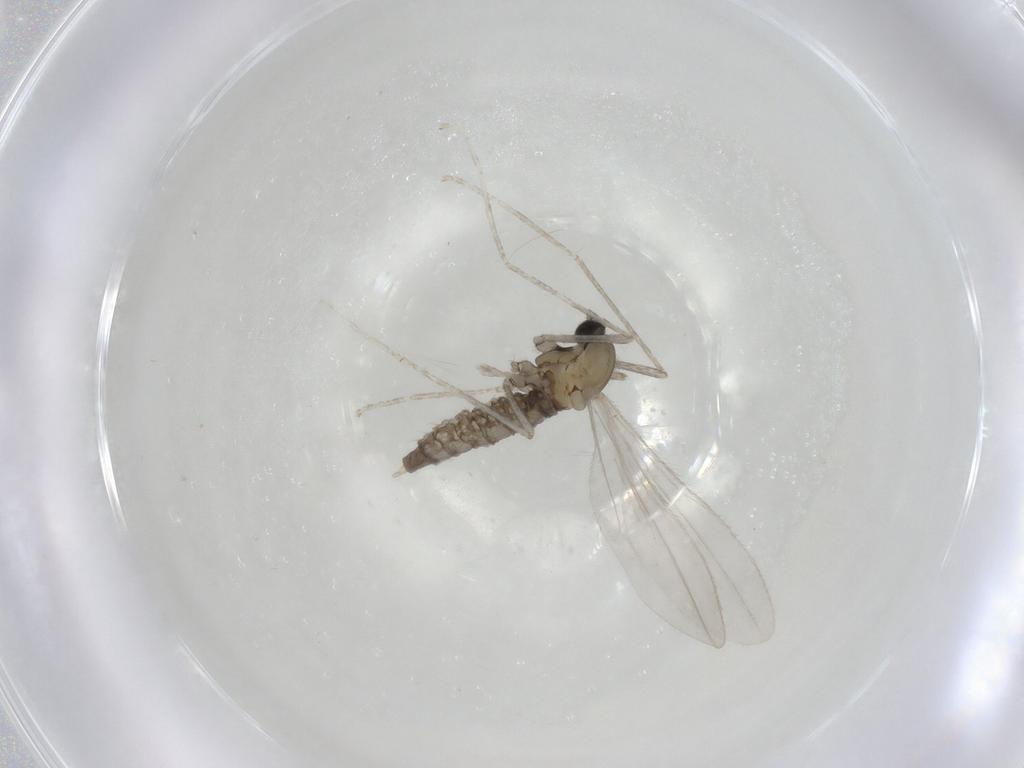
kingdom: Animalia
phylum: Arthropoda
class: Insecta
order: Diptera
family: Cecidomyiidae
